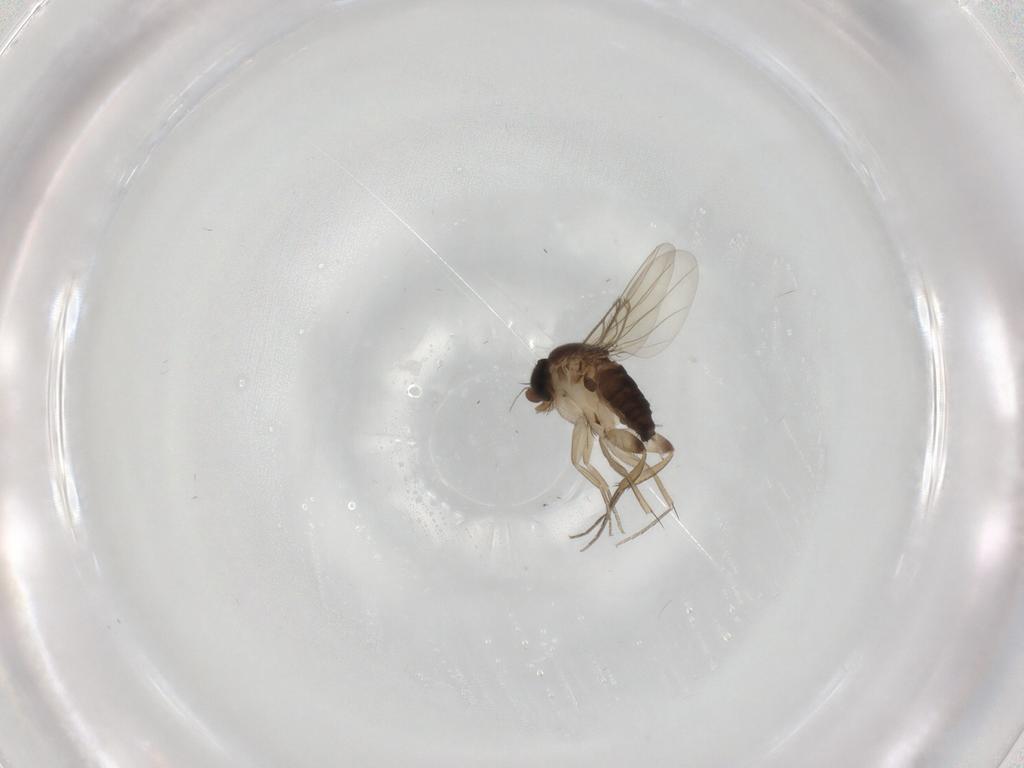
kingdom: Animalia
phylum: Arthropoda
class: Insecta
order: Diptera
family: Phoridae
